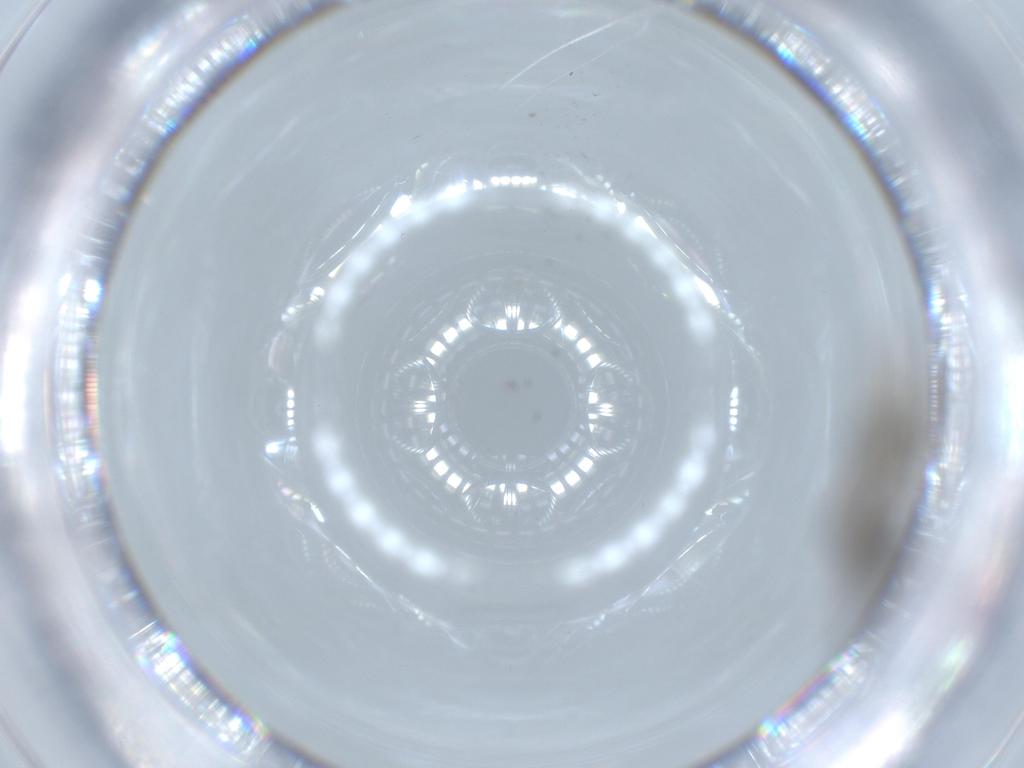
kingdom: Animalia
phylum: Arthropoda
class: Insecta
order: Hymenoptera
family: Diparidae
